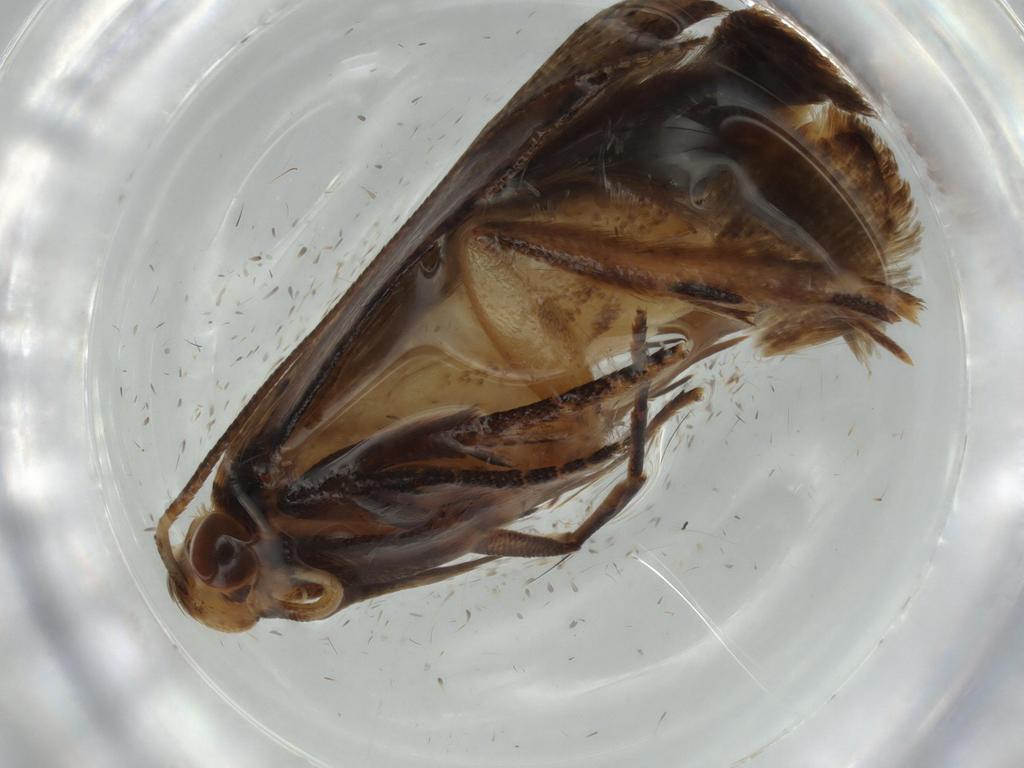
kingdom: Animalia
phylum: Arthropoda
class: Insecta
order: Lepidoptera
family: Gelechiidae
